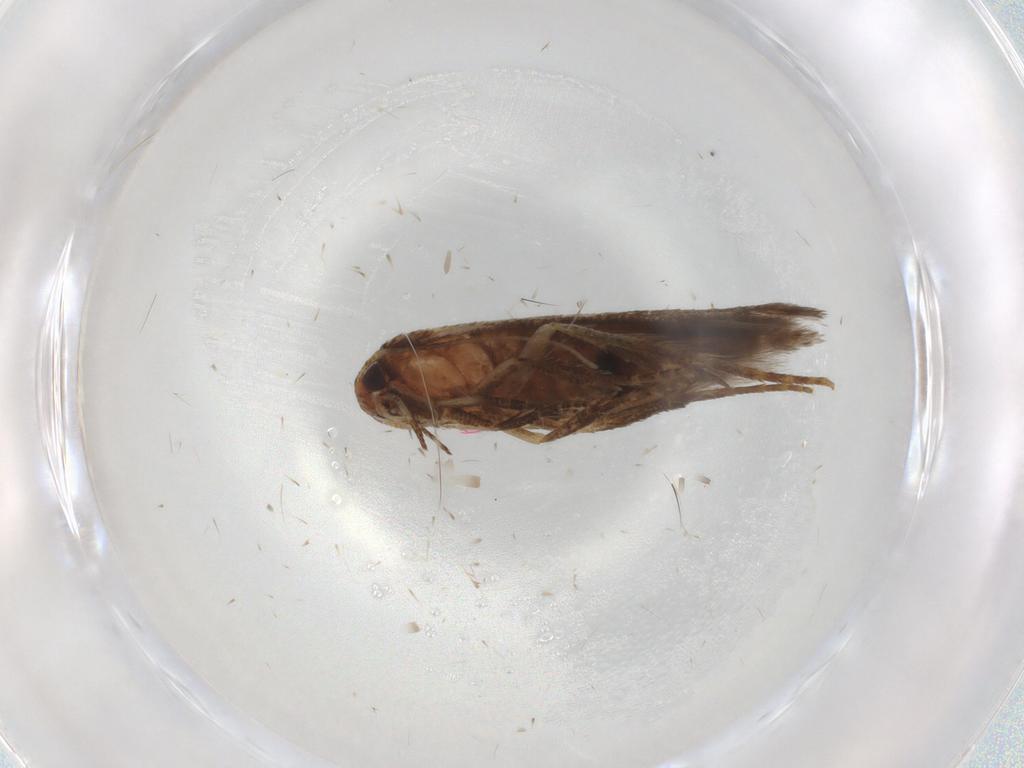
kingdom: Animalia
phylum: Arthropoda
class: Insecta
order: Lepidoptera
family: Cosmopterigidae
